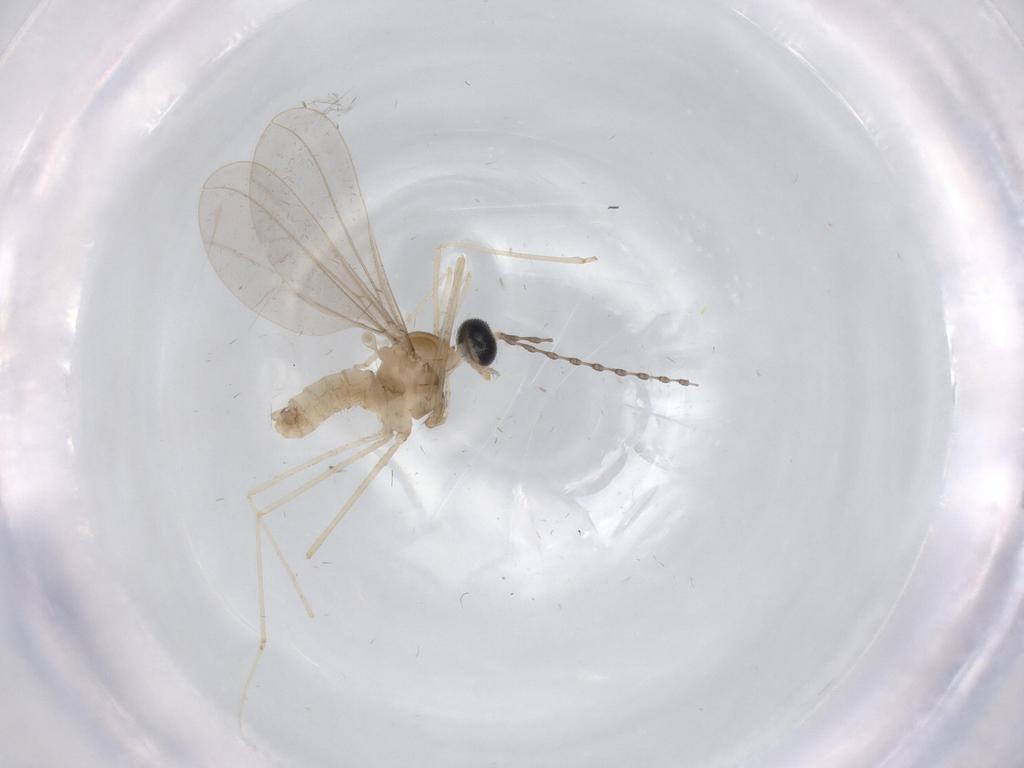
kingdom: Animalia
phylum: Arthropoda
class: Insecta
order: Diptera
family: Cecidomyiidae
